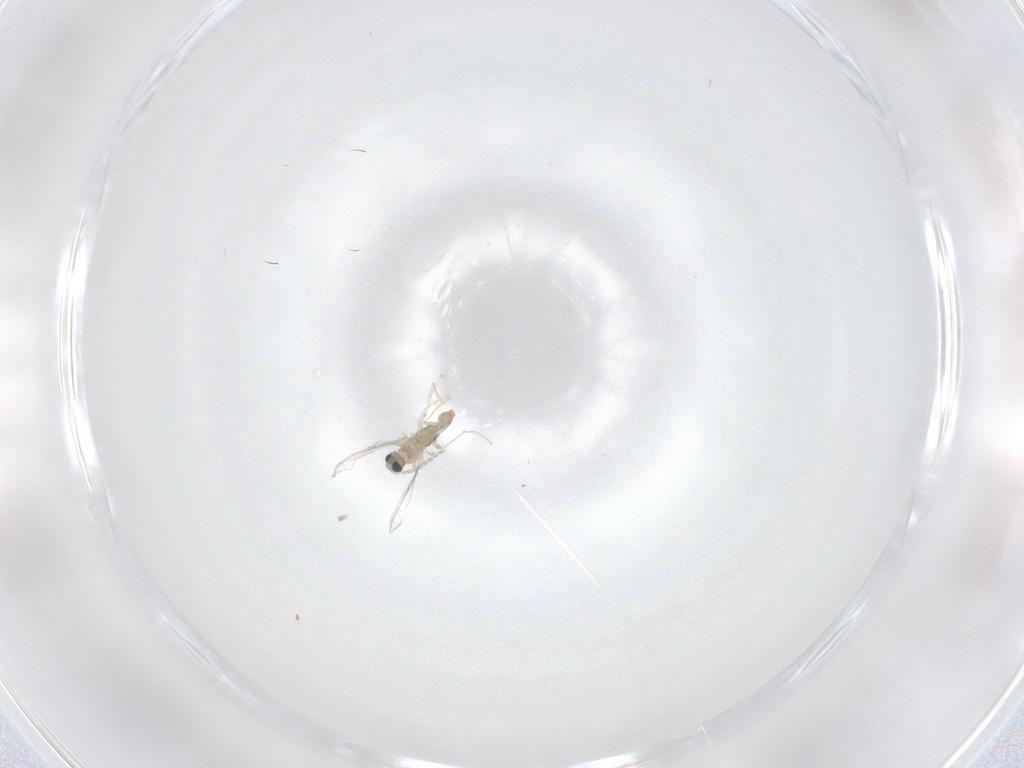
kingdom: Animalia
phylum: Arthropoda
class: Insecta
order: Diptera
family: Cecidomyiidae
